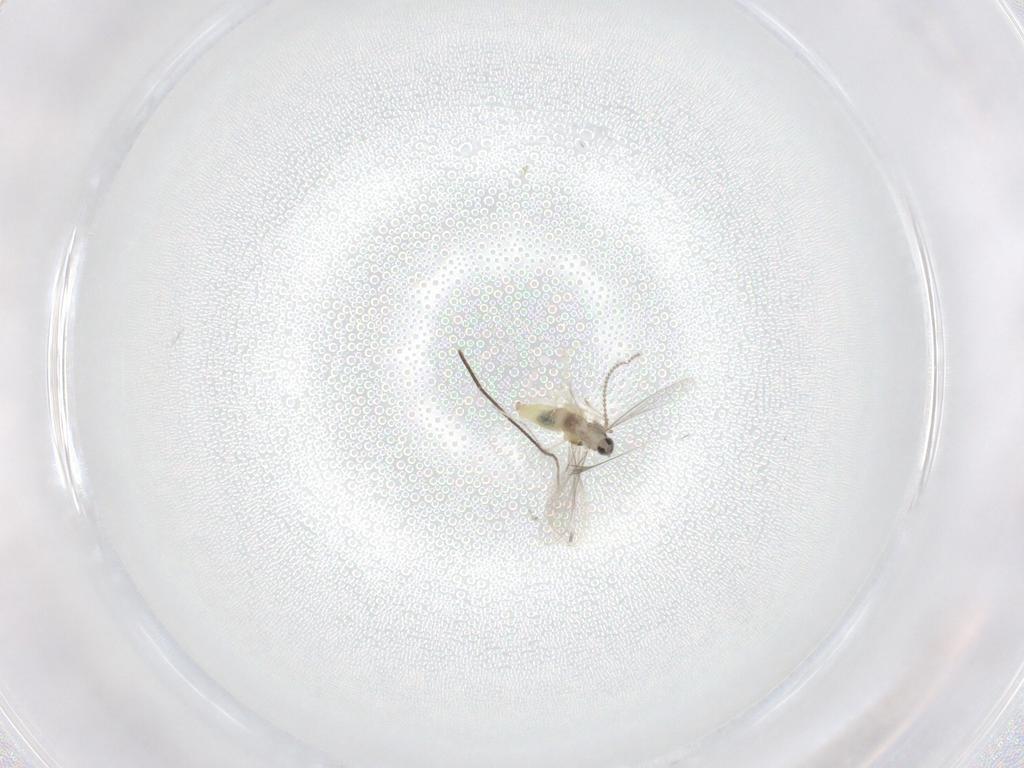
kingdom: Animalia
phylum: Arthropoda
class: Insecta
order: Diptera
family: Cecidomyiidae
